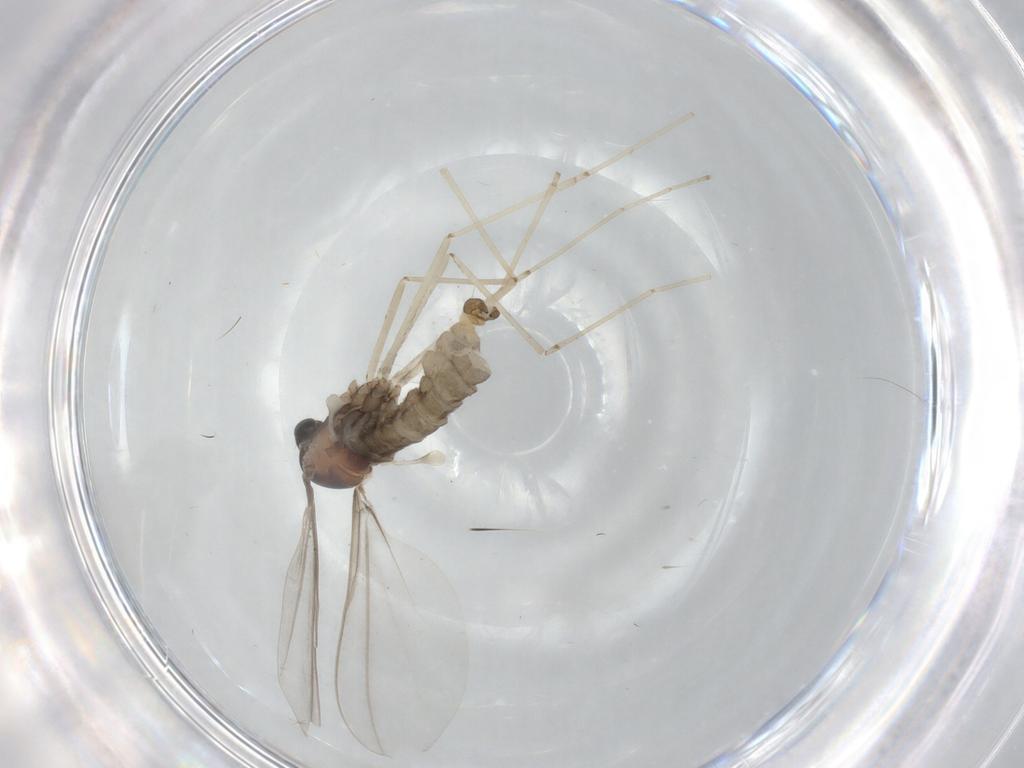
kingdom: Animalia
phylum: Arthropoda
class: Insecta
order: Diptera
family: Cecidomyiidae
